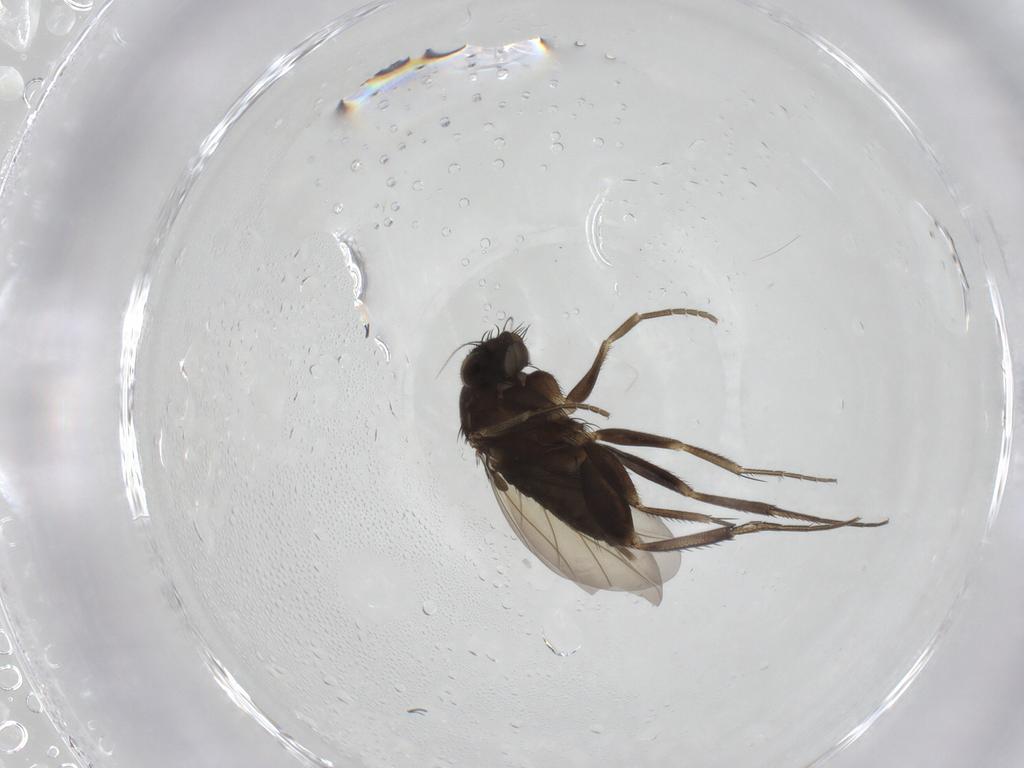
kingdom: Animalia
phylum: Arthropoda
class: Insecta
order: Diptera
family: Phoridae
